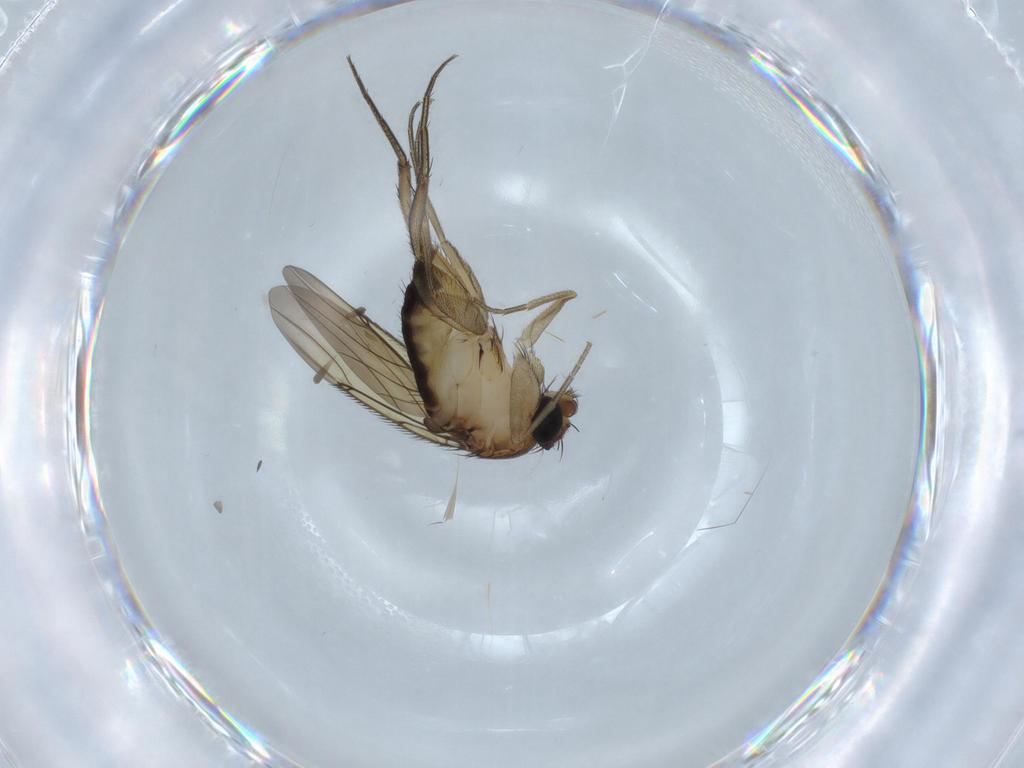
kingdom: Animalia
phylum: Arthropoda
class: Insecta
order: Diptera
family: Phoridae
